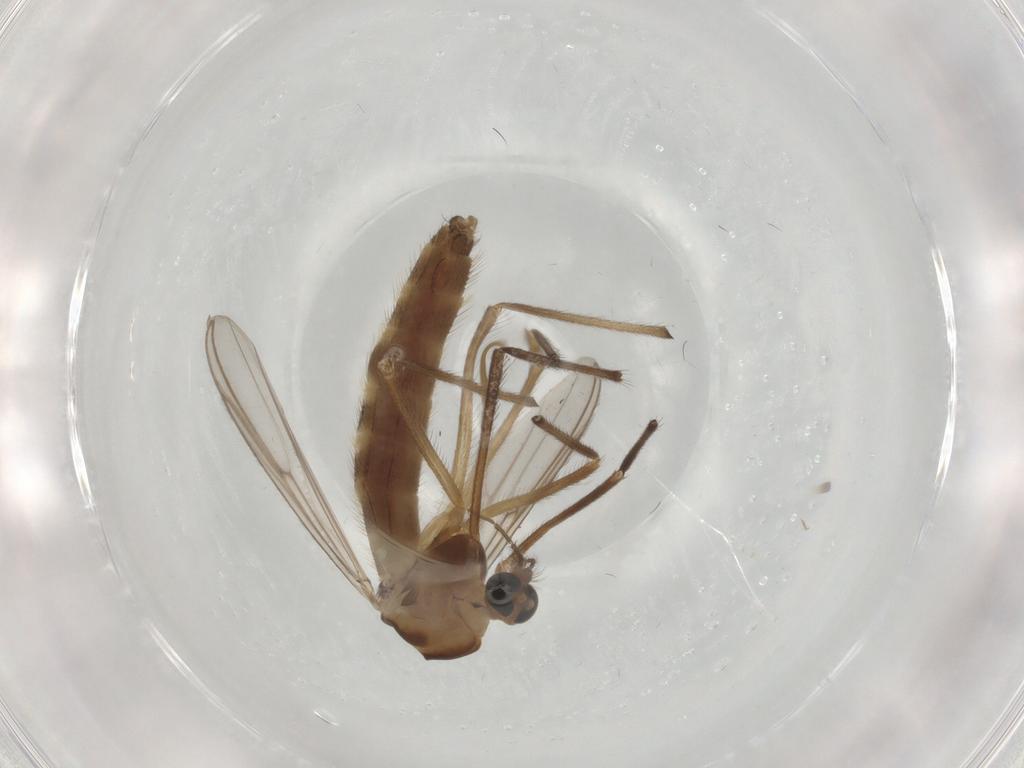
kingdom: Animalia
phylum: Arthropoda
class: Insecta
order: Diptera
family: Chironomidae
